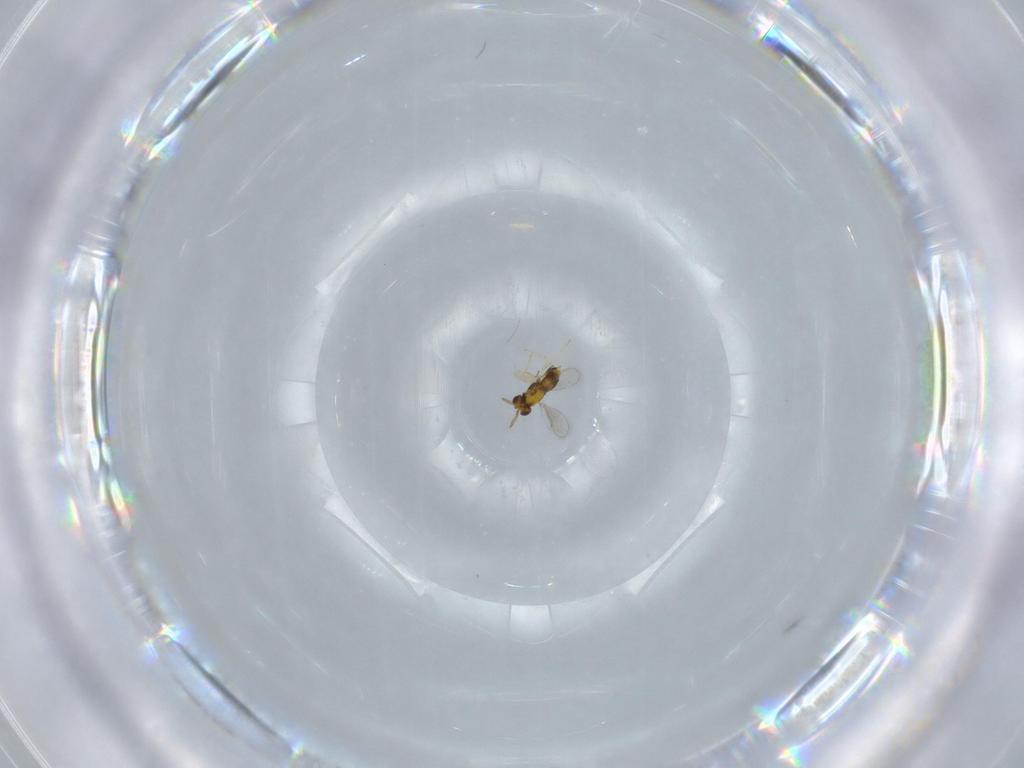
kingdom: Animalia
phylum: Arthropoda
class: Insecta
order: Hymenoptera
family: Aphelinidae
